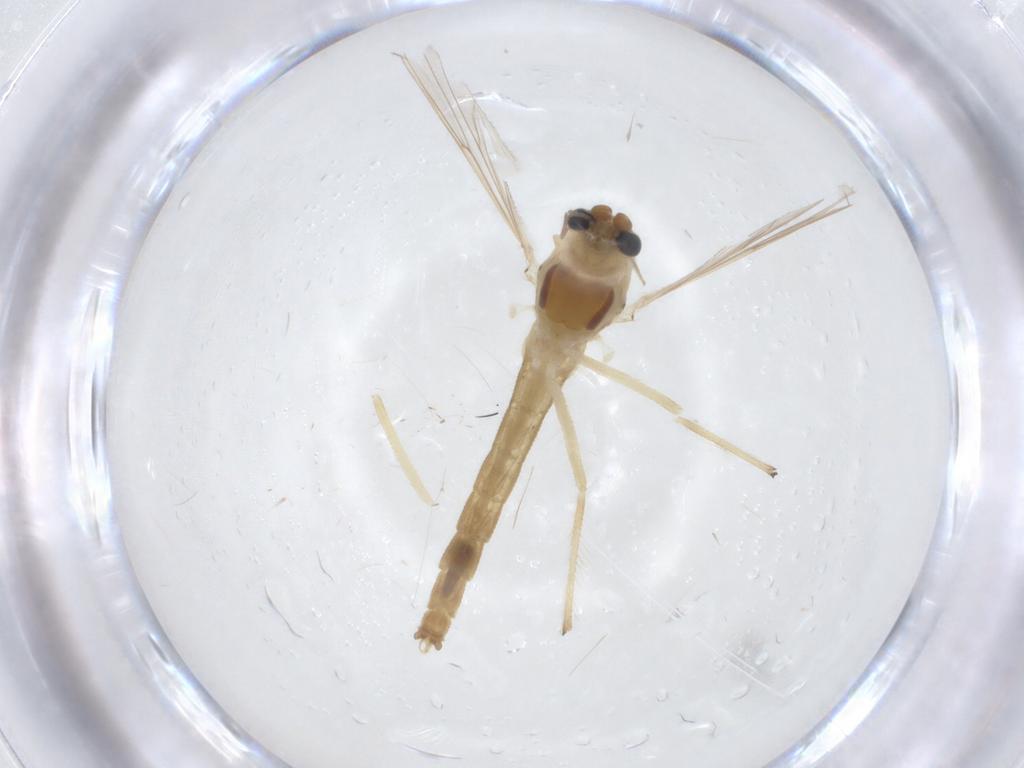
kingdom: Animalia
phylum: Arthropoda
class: Insecta
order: Diptera
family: Chironomidae
